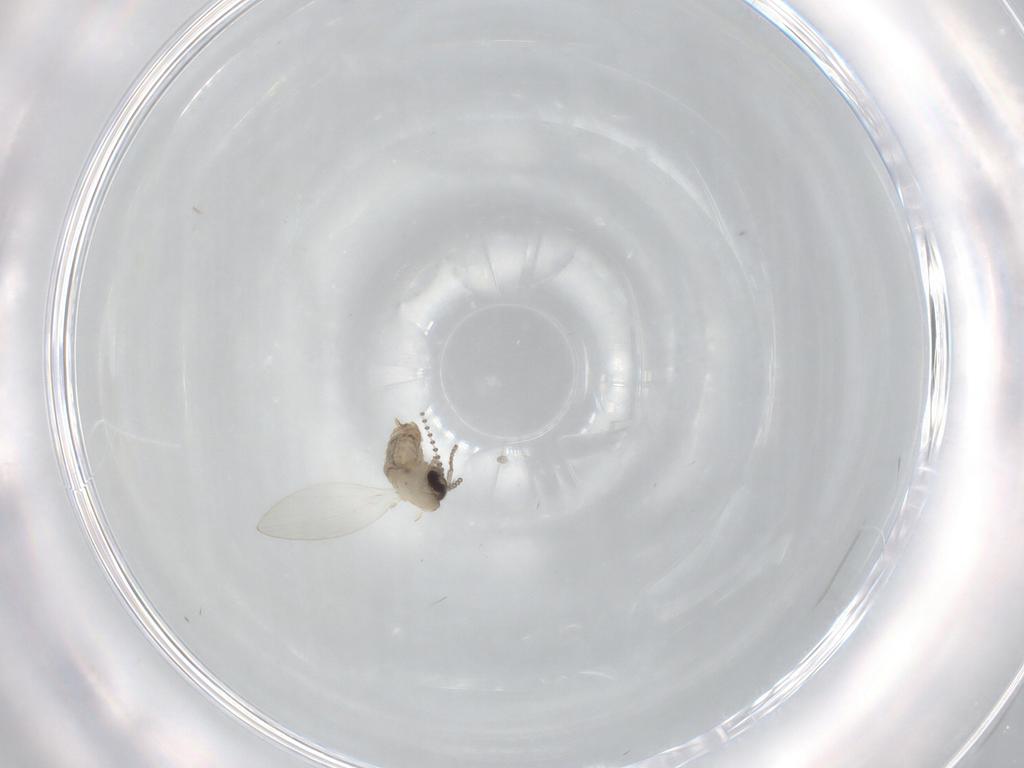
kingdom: Animalia
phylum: Arthropoda
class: Insecta
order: Diptera
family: Psychodidae
